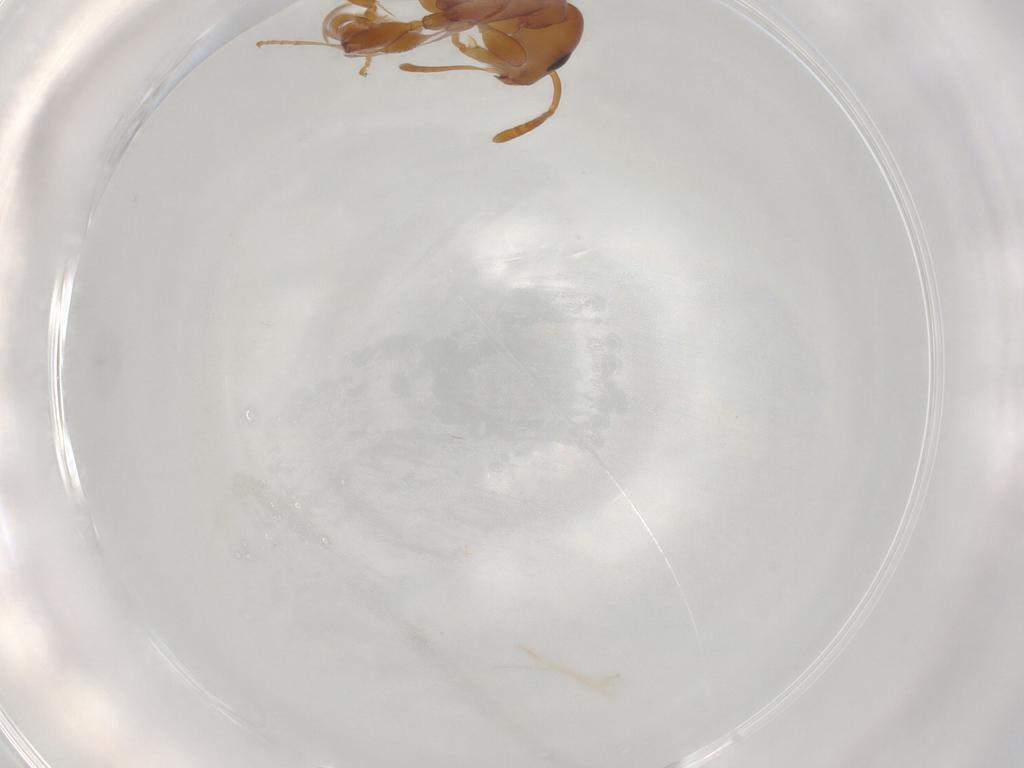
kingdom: Animalia
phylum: Arthropoda
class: Insecta
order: Hymenoptera
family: Formicidae
